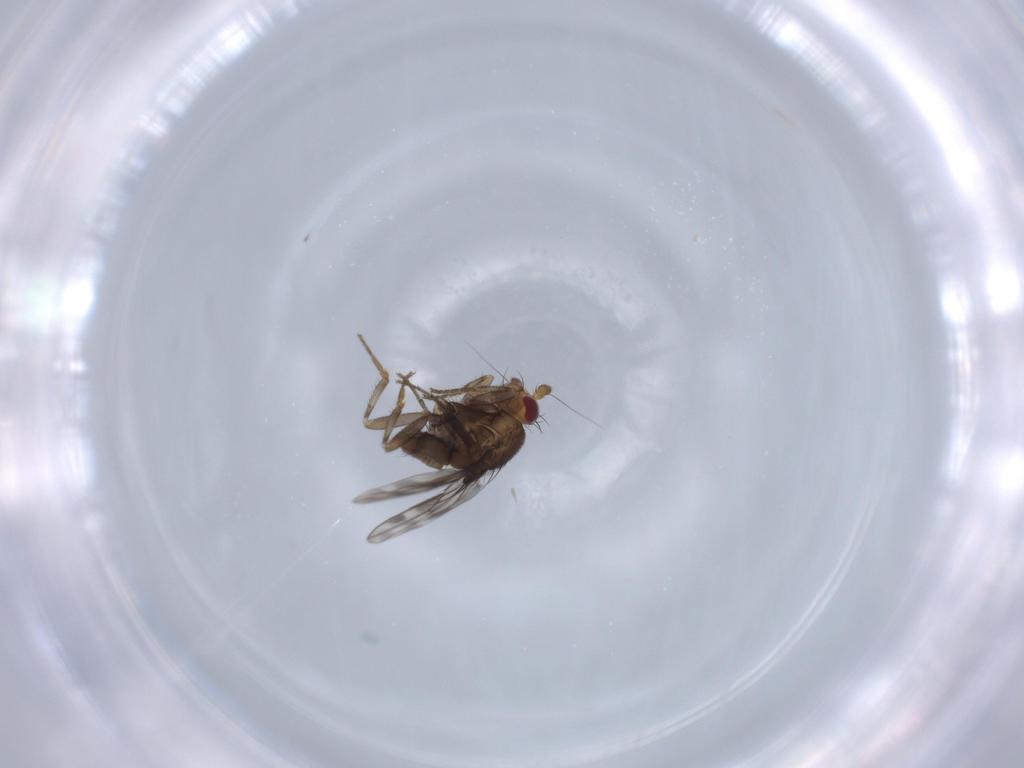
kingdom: Animalia
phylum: Arthropoda
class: Insecta
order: Diptera
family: Sphaeroceridae
